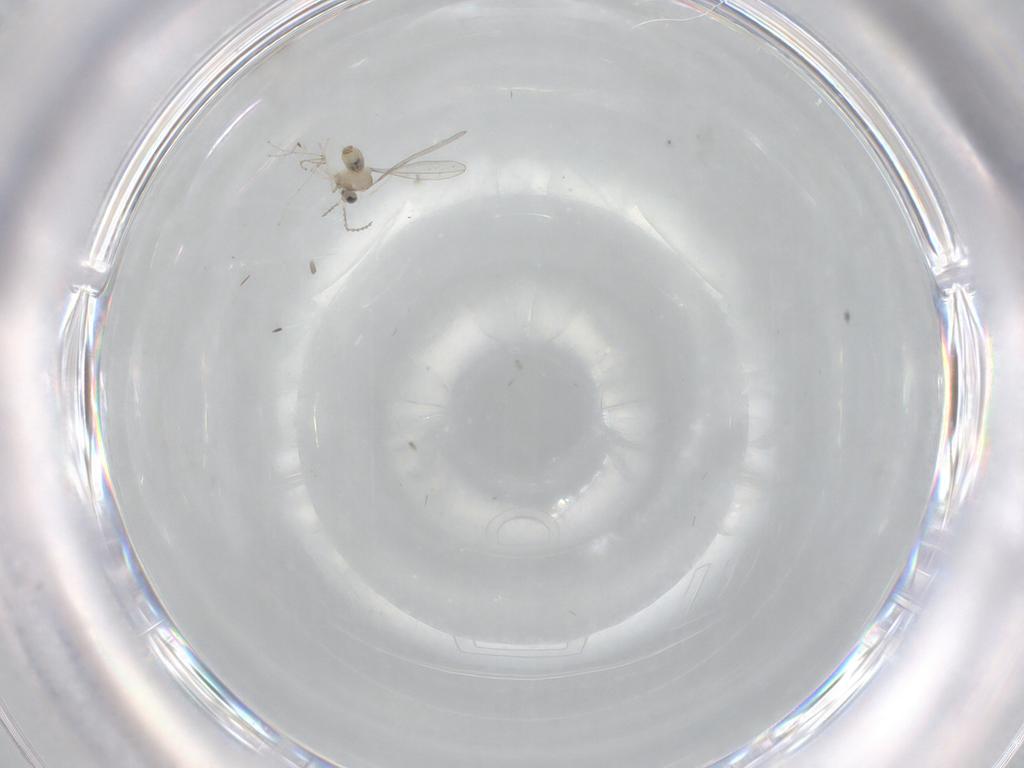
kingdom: Animalia
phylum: Arthropoda
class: Insecta
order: Diptera
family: Cecidomyiidae
